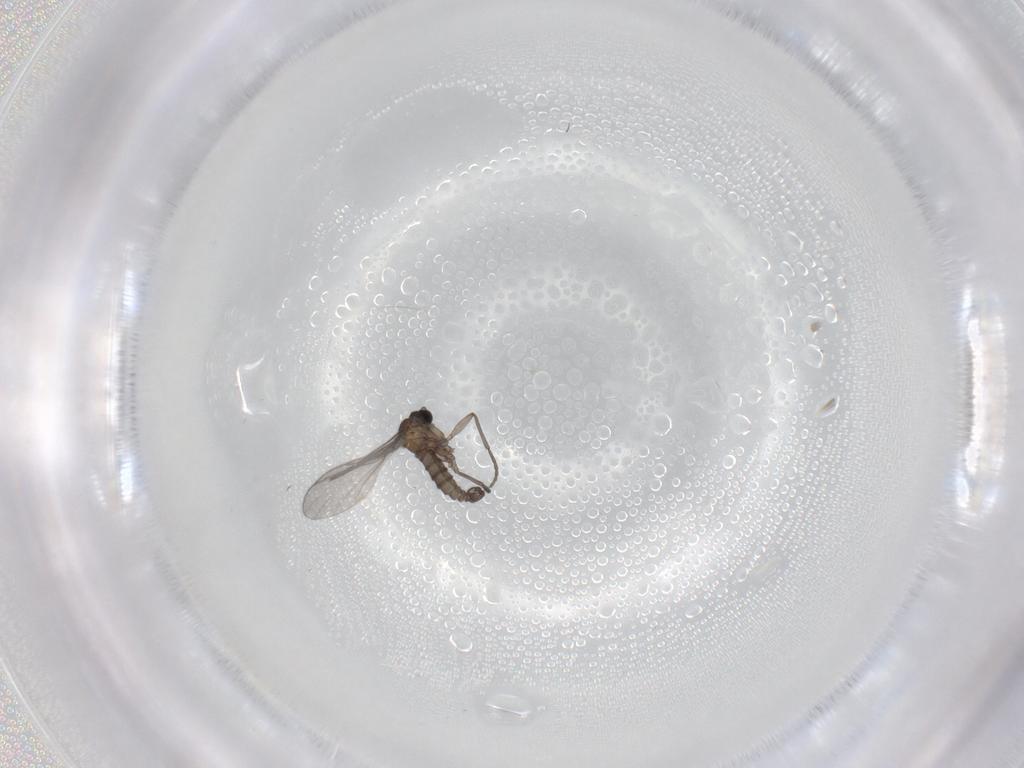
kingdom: Animalia
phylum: Arthropoda
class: Insecta
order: Diptera
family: Sciaridae
